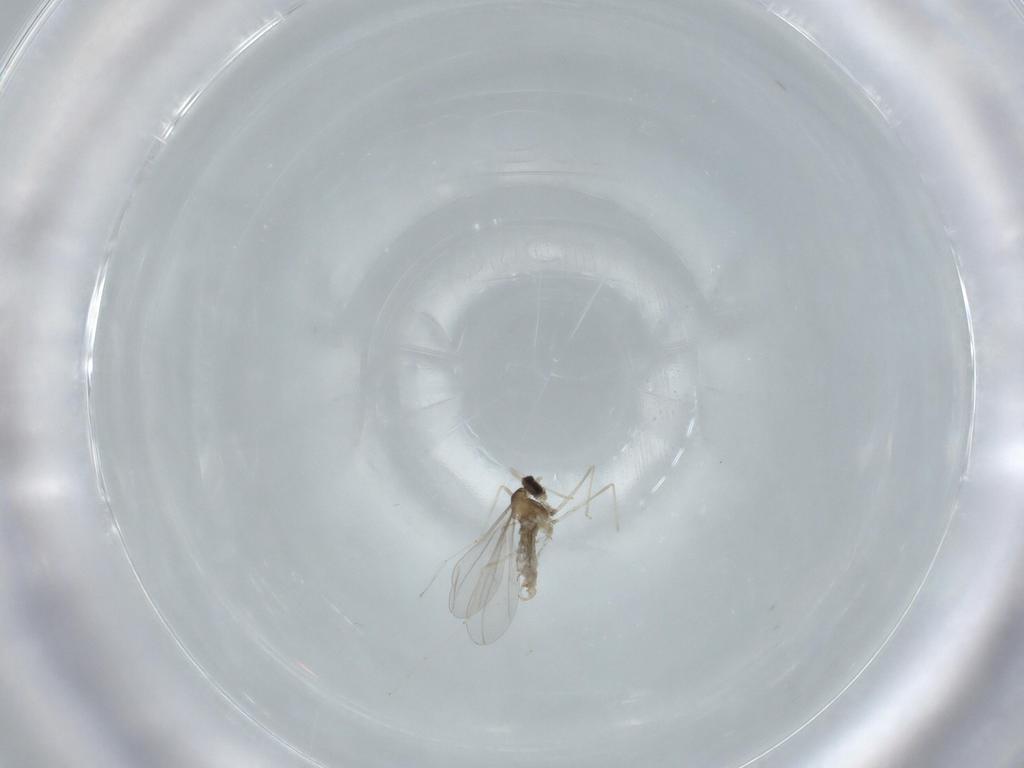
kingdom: Animalia
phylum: Arthropoda
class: Insecta
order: Diptera
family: Cecidomyiidae
